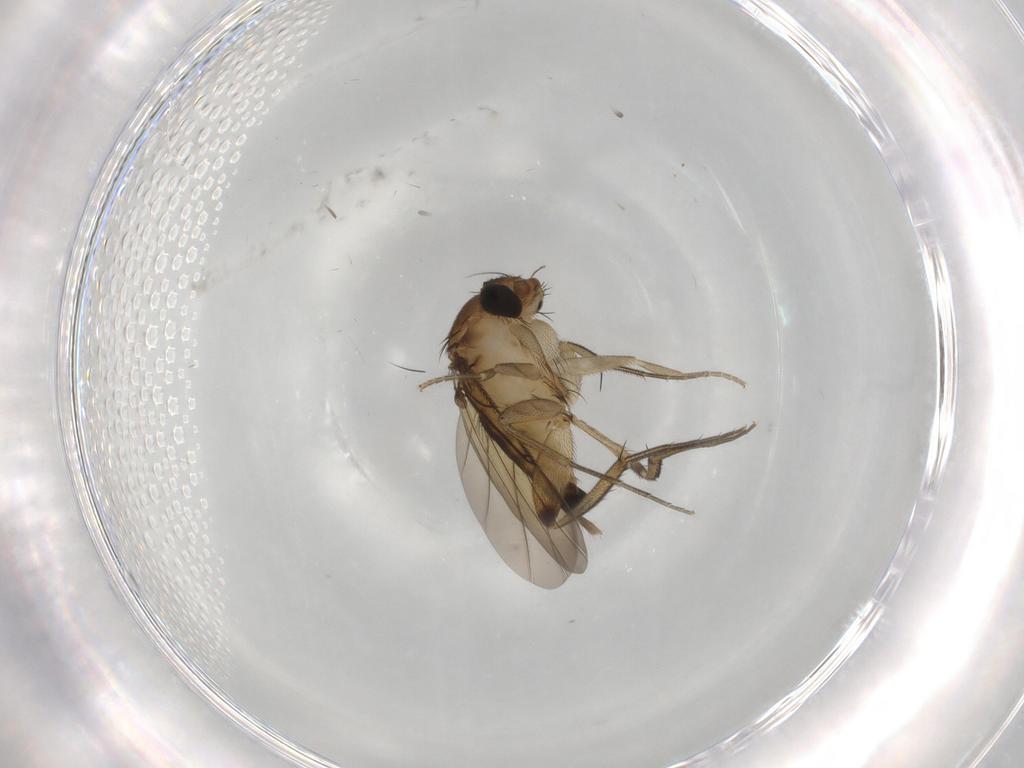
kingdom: Animalia
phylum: Arthropoda
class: Insecta
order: Diptera
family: Phoridae
